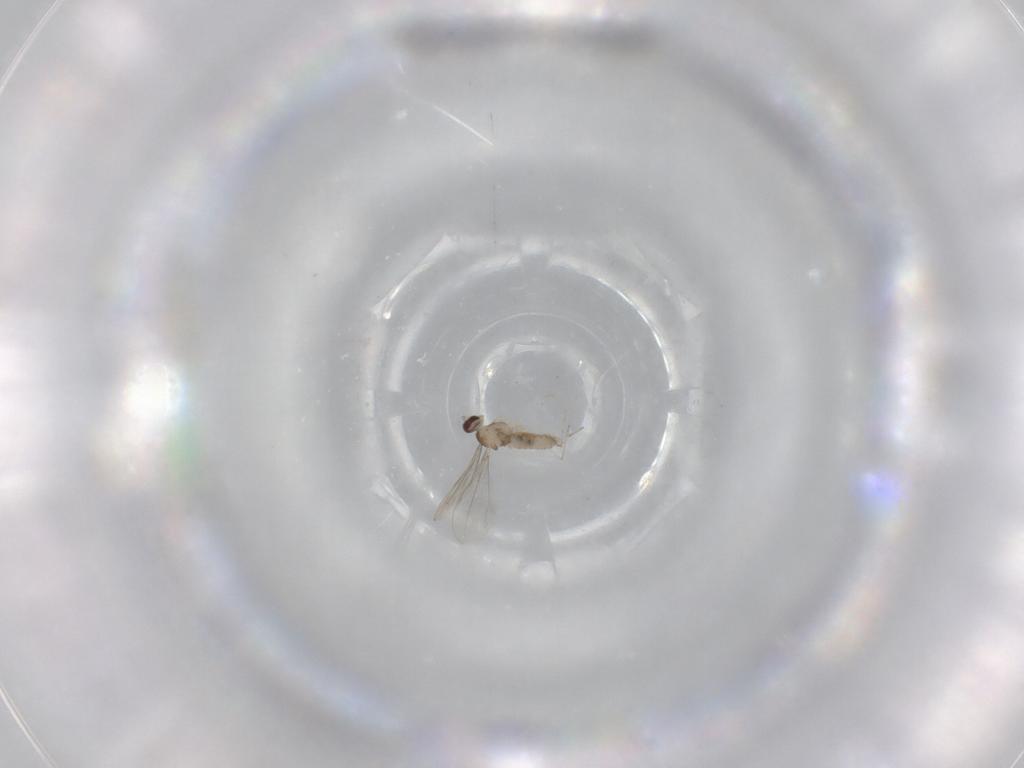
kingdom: Animalia
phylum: Arthropoda
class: Insecta
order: Diptera
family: Cecidomyiidae
